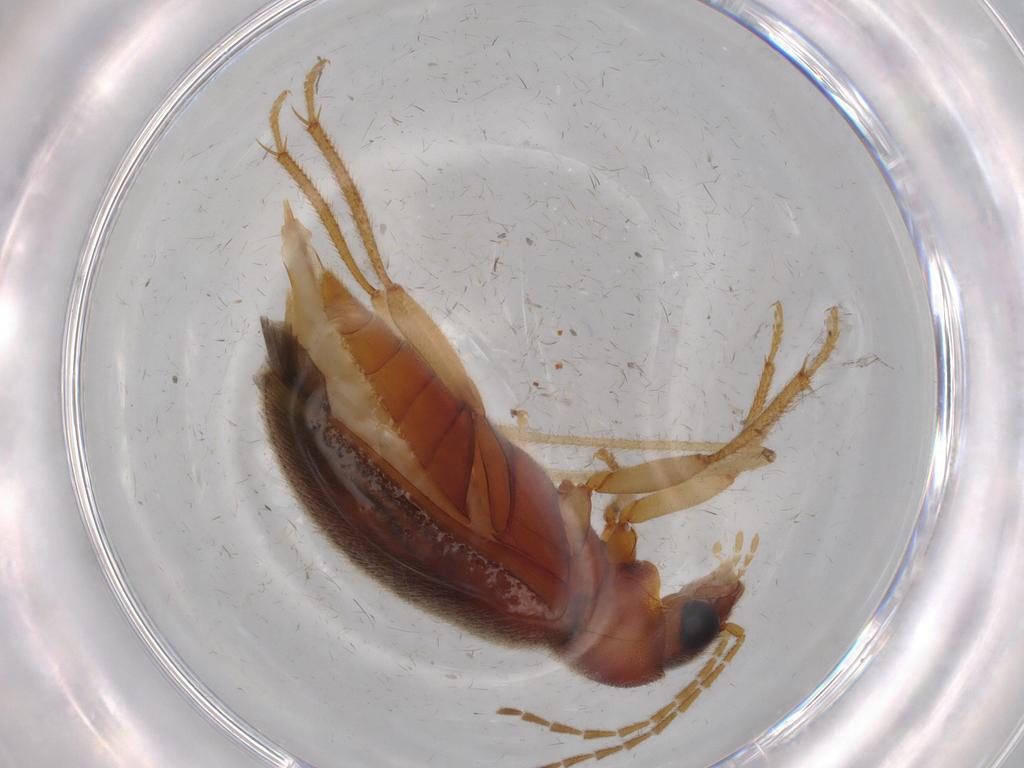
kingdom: Animalia
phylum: Arthropoda
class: Insecta
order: Coleoptera
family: Ptilodactylidae
